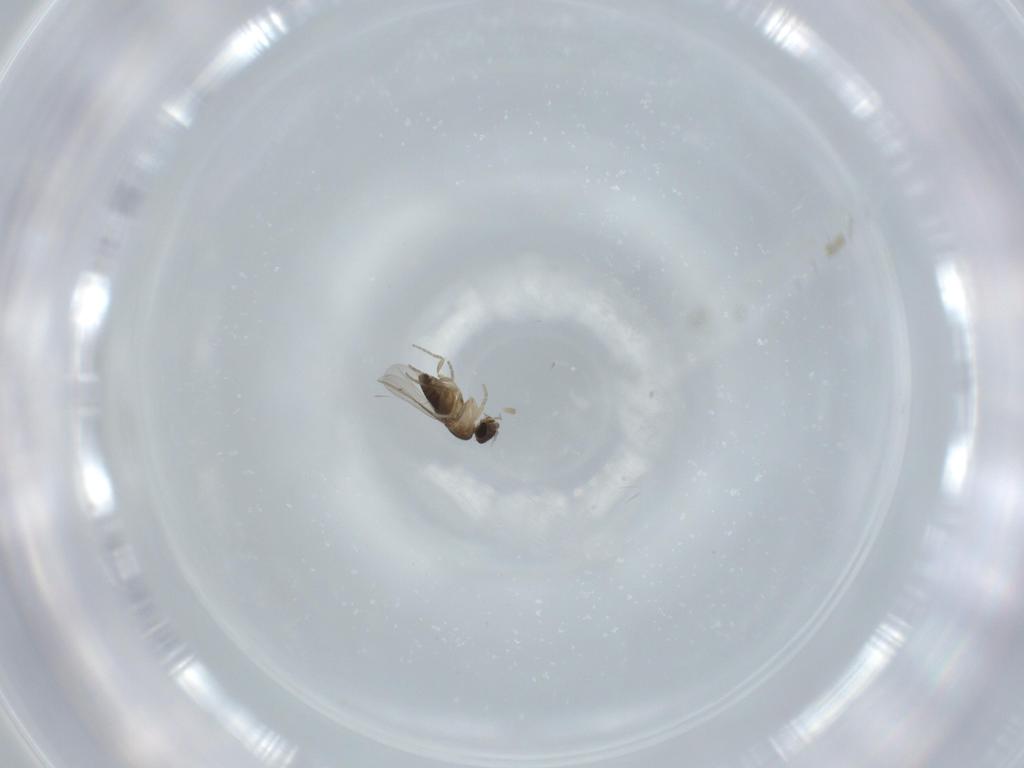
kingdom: Animalia
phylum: Arthropoda
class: Insecta
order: Diptera
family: Phoridae
